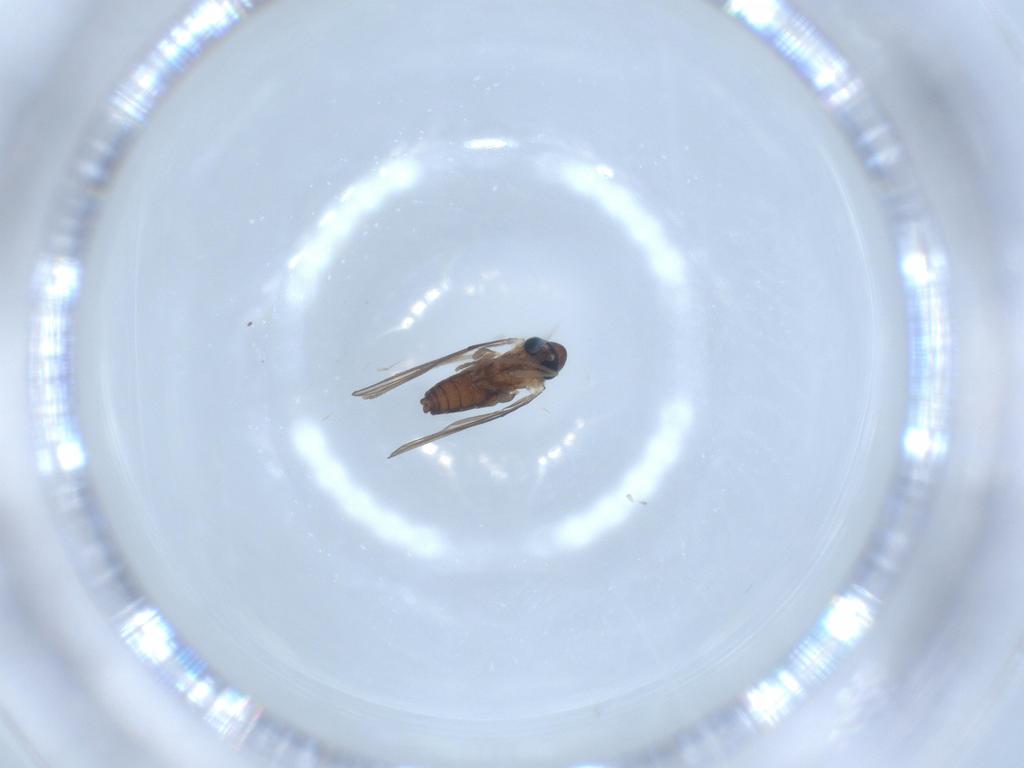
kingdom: Animalia
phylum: Arthropoda
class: Insecta
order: Diptera
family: Psychodidae
